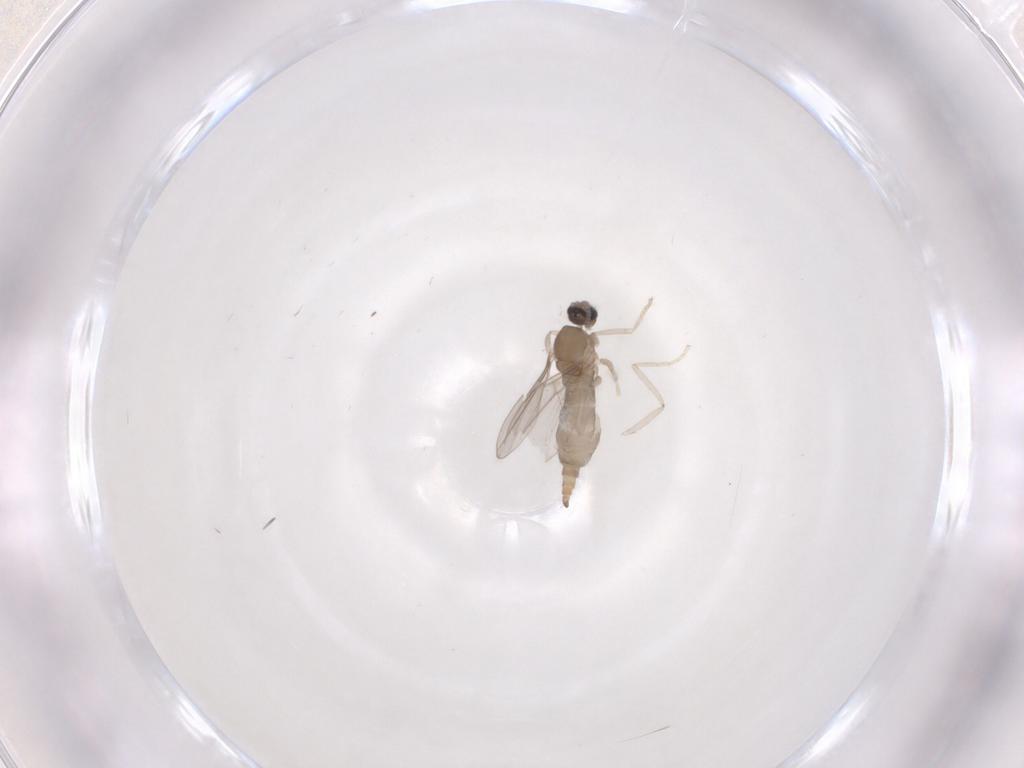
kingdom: Animalia
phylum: Arthropoda
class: Insecta
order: Diptera
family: Cecidomyiidae
